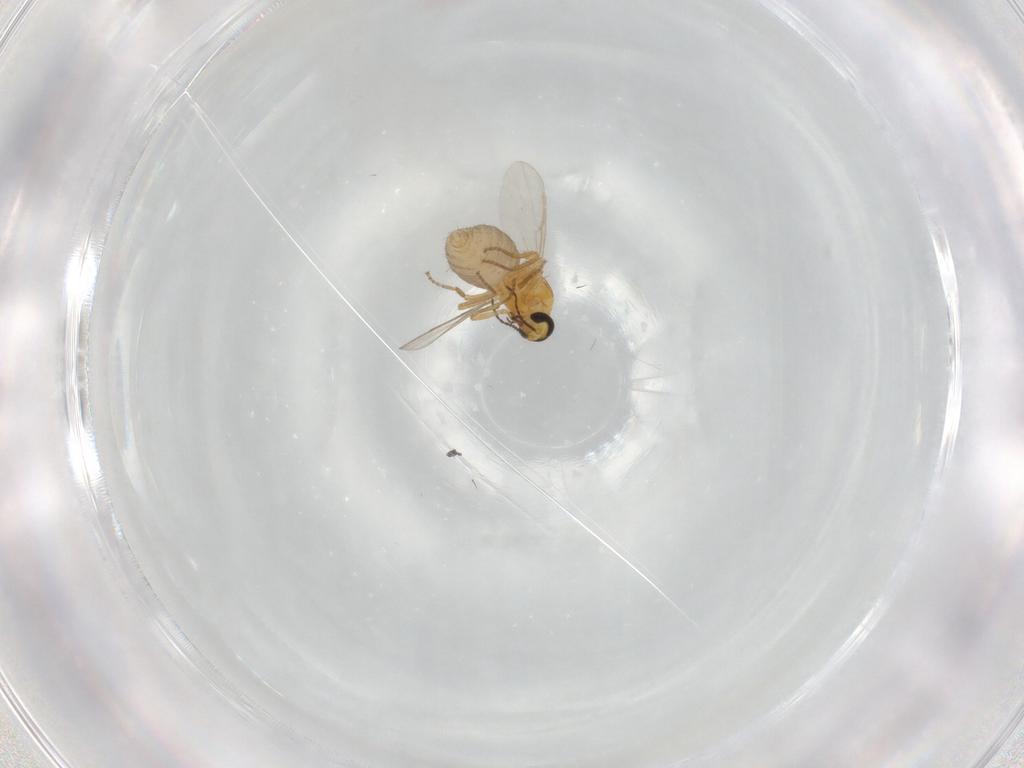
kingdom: Animalia
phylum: Arthropoda
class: Insecta
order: Diptera
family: Ceratopogonidae
